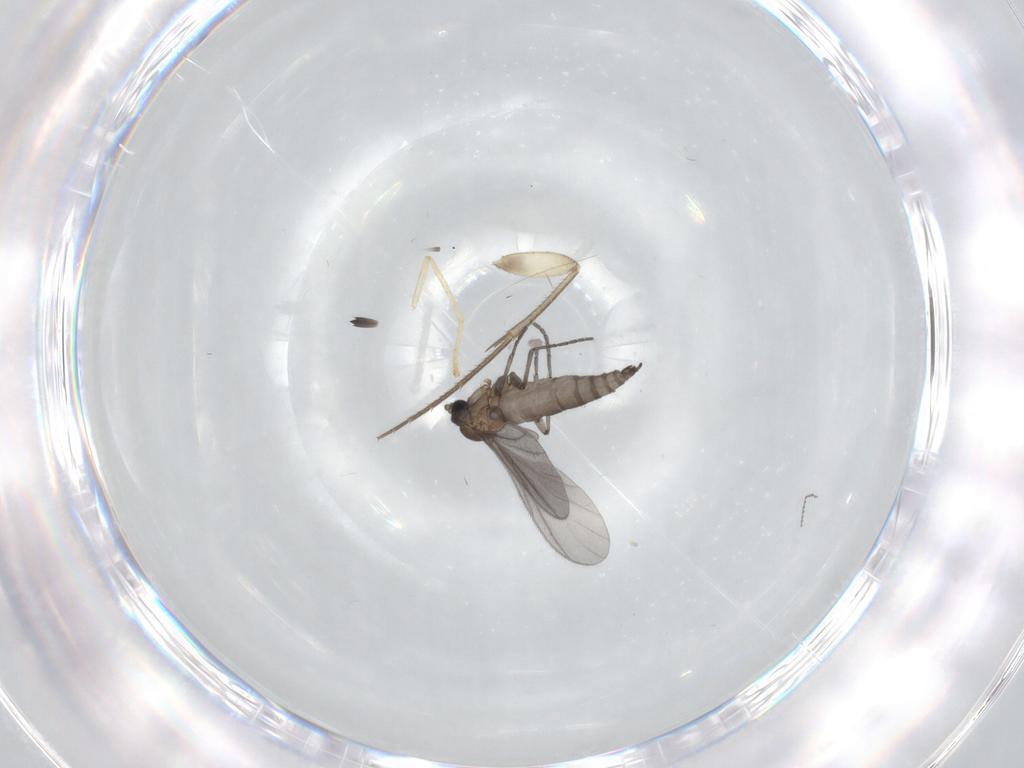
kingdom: Animalia
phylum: Arthropoda
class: Insecta
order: Diptera
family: Sciaridae
